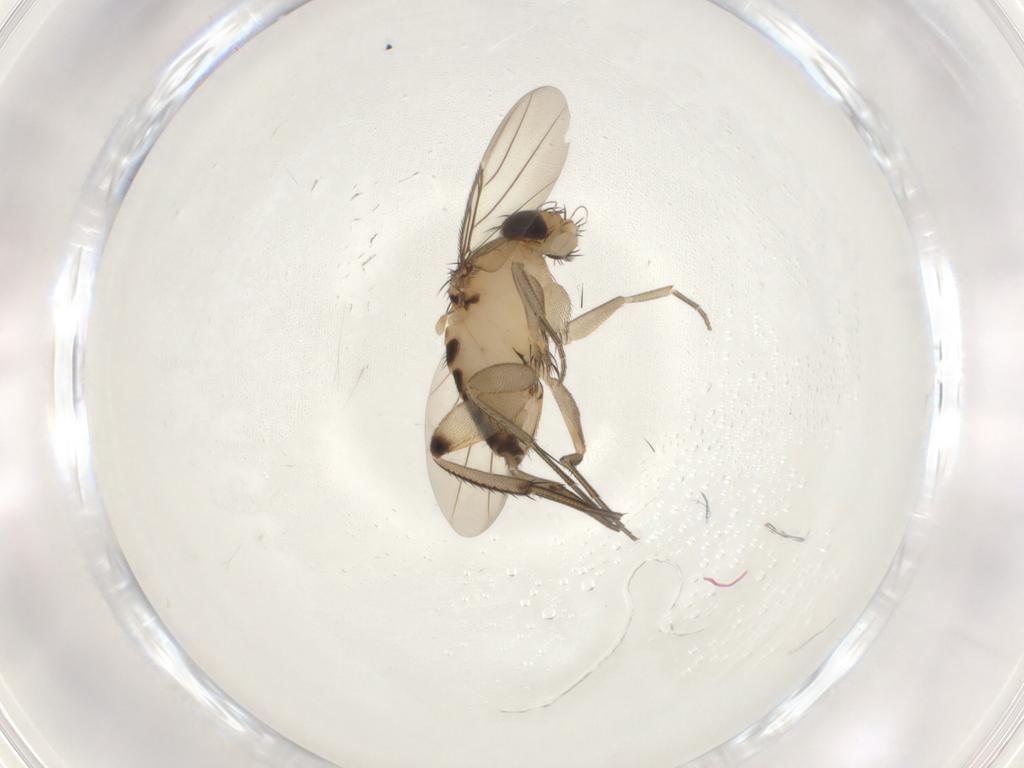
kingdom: Animalia
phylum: Arthropoda
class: Insecta
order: Diptera
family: Phoridae
